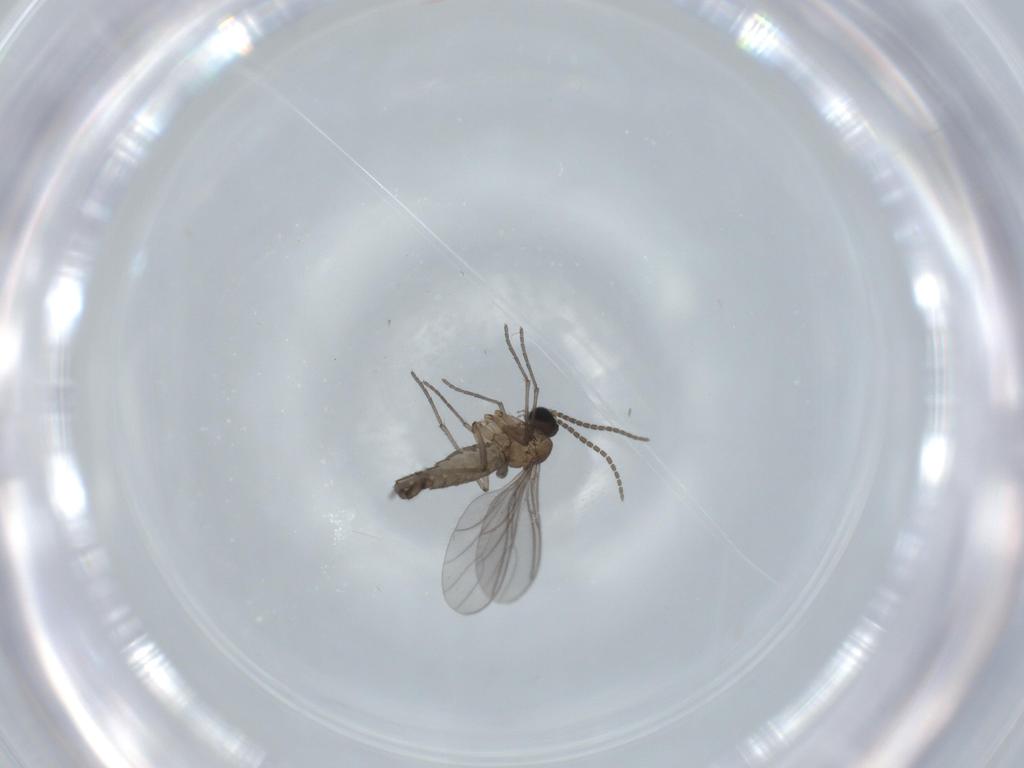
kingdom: Animalia
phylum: Arthropoda
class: Insecta
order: Diptera
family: Sciaridae
